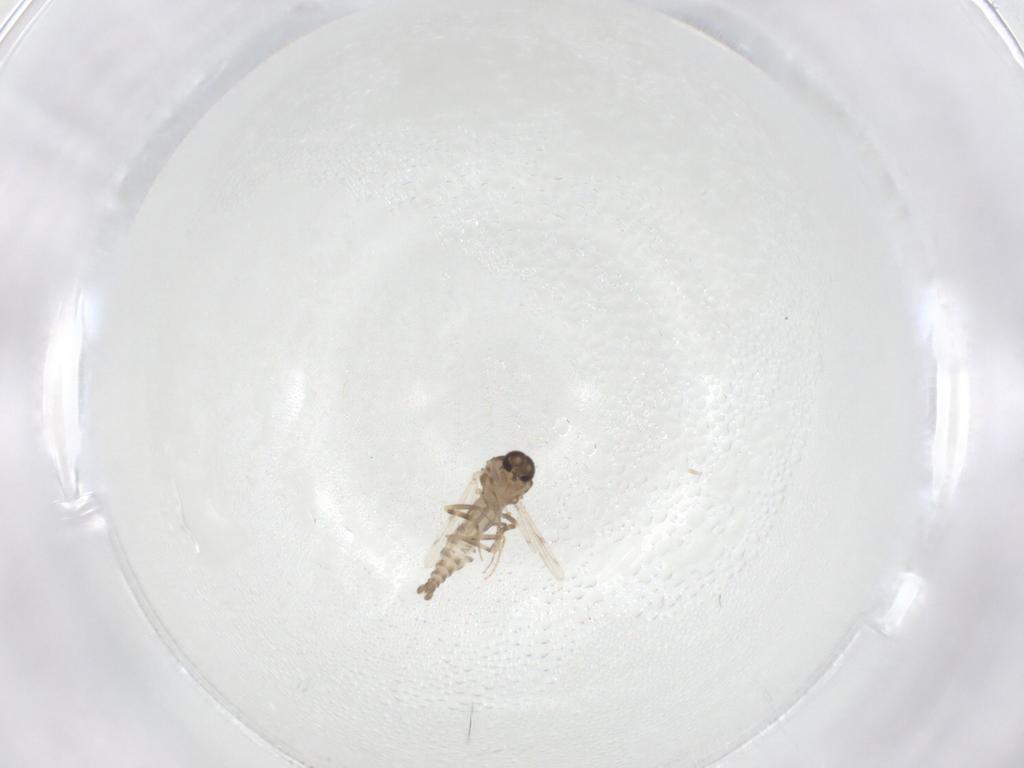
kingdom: Animalia
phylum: Arthropoda
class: Insecta
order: Diptera
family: Ceratopogonidae
